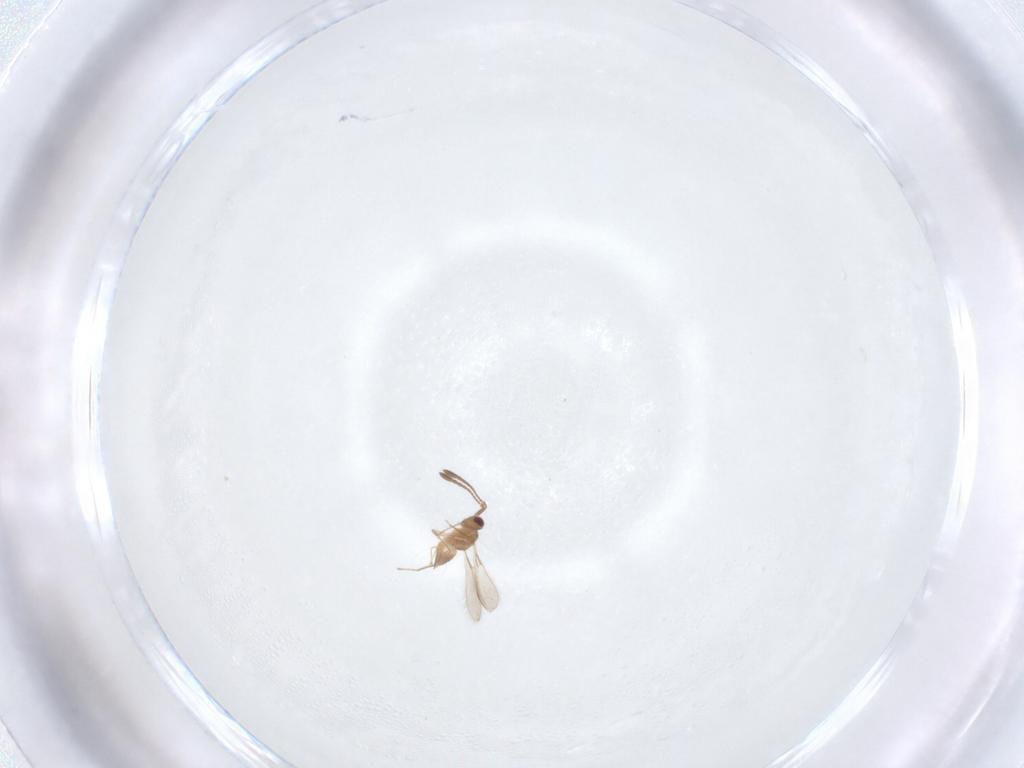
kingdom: Animalia
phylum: Arthropoda
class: Insecta
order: Hymenoptera
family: Mymaridae
